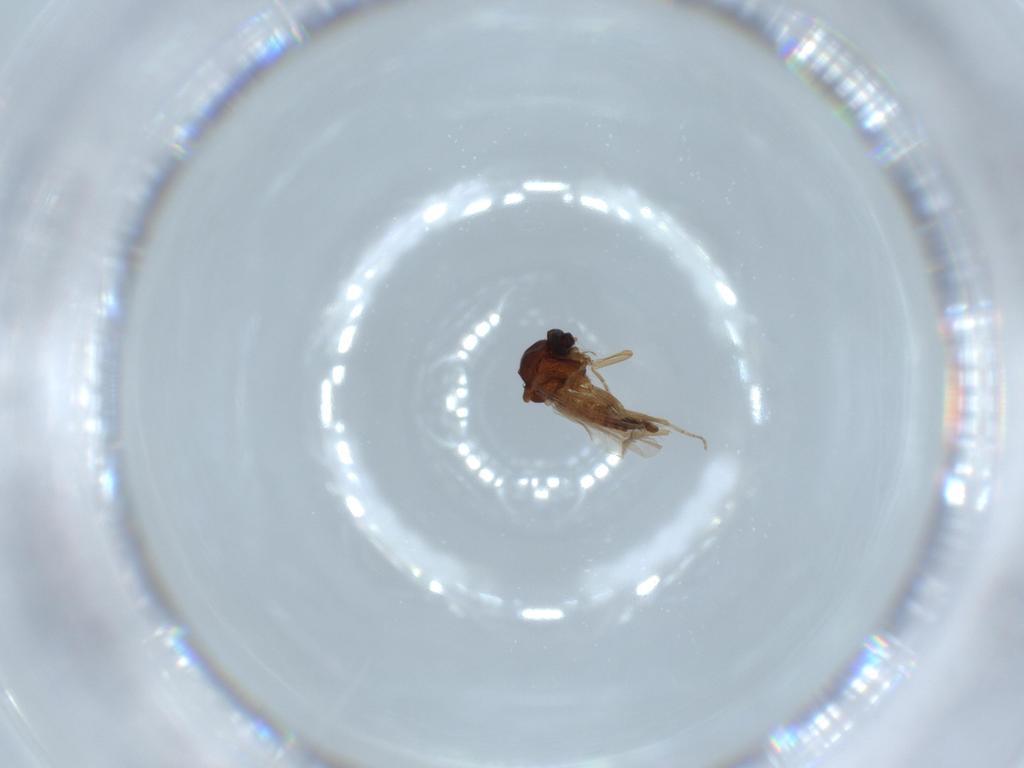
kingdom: Animalia
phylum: Arthropoda
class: Insecta
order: Diptera
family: Ceratopogonidae
